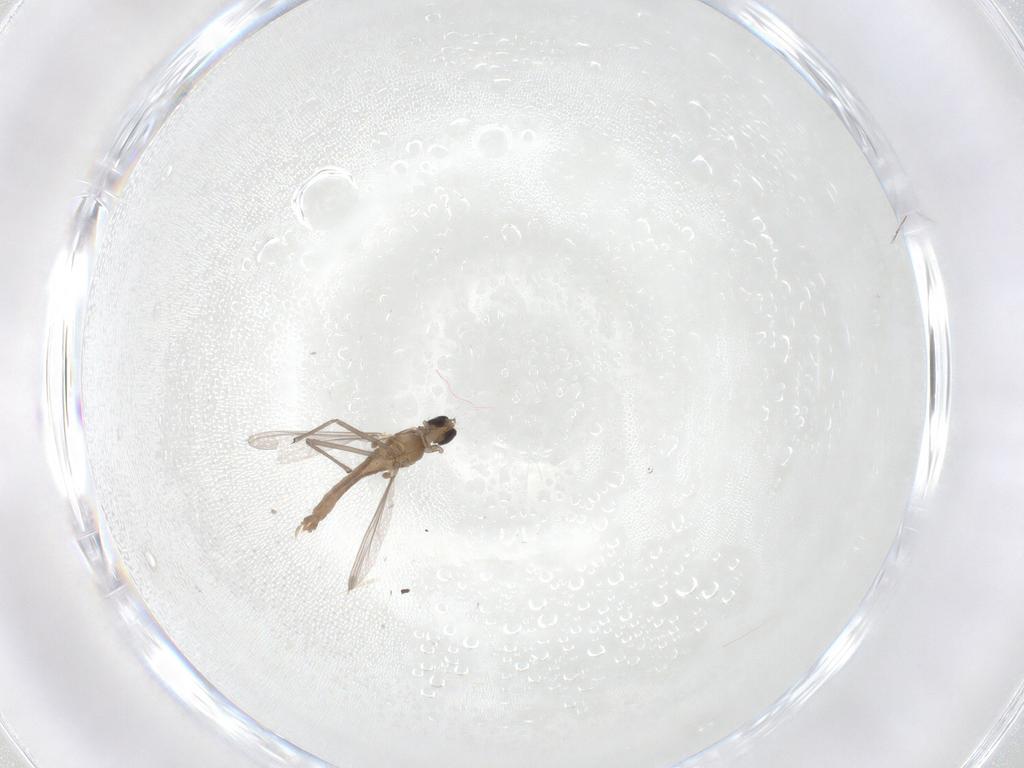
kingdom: Animalia
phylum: Arthropoda
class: Insecta
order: Diptera
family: Chironomidae
